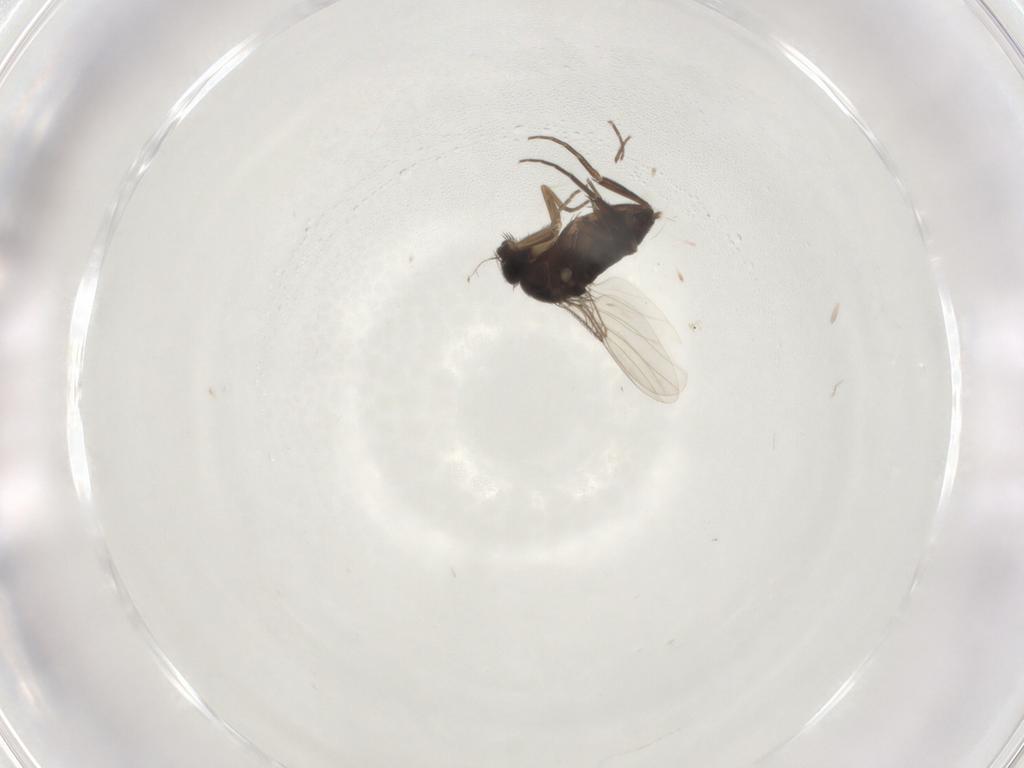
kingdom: Animalia
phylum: Arthropoda
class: Insecta
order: Diptera
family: Phoridae
